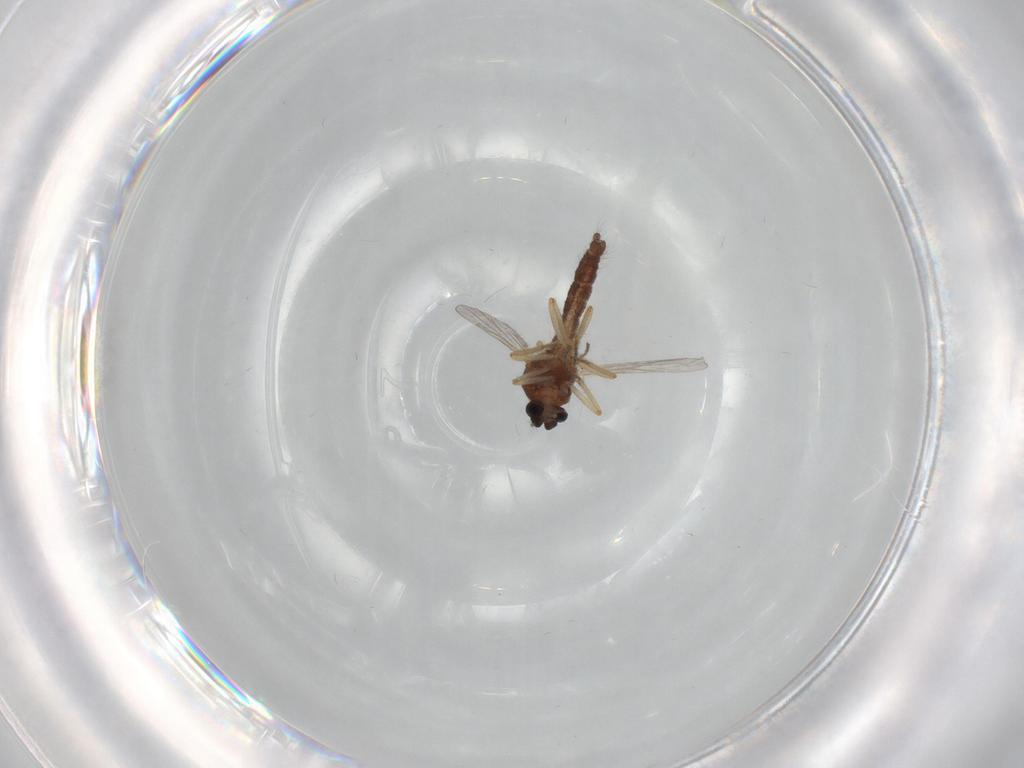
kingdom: Animalia
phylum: Arthropoda
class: Insecta
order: Diptera
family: Ceratopogonidae
